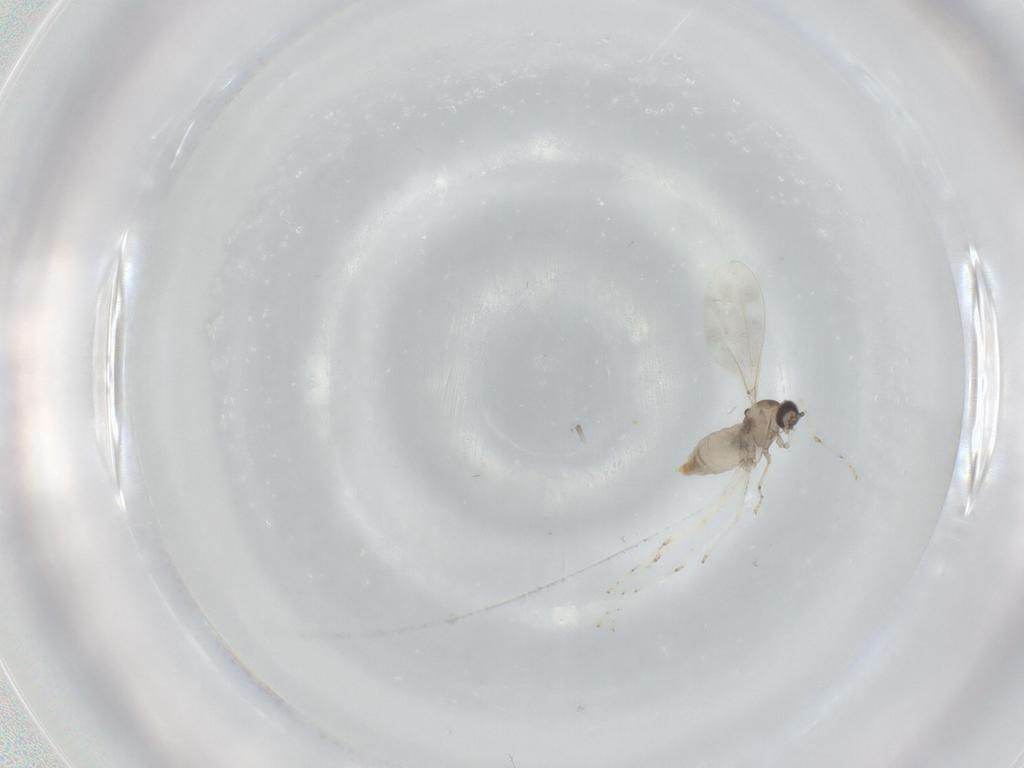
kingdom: Animalia
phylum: Arthropoda
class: Insecta
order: Diptera
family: Cecidomyiidae
